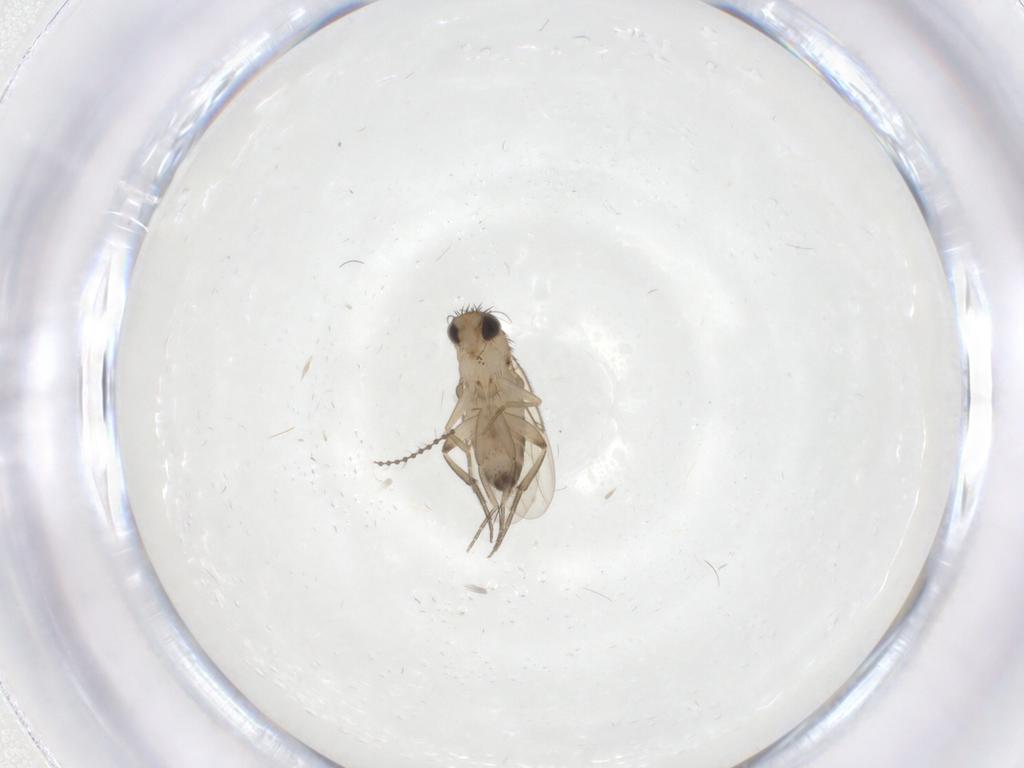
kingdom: Animalia
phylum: Arthropoda
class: Insecta
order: Diptera
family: Phoridae
